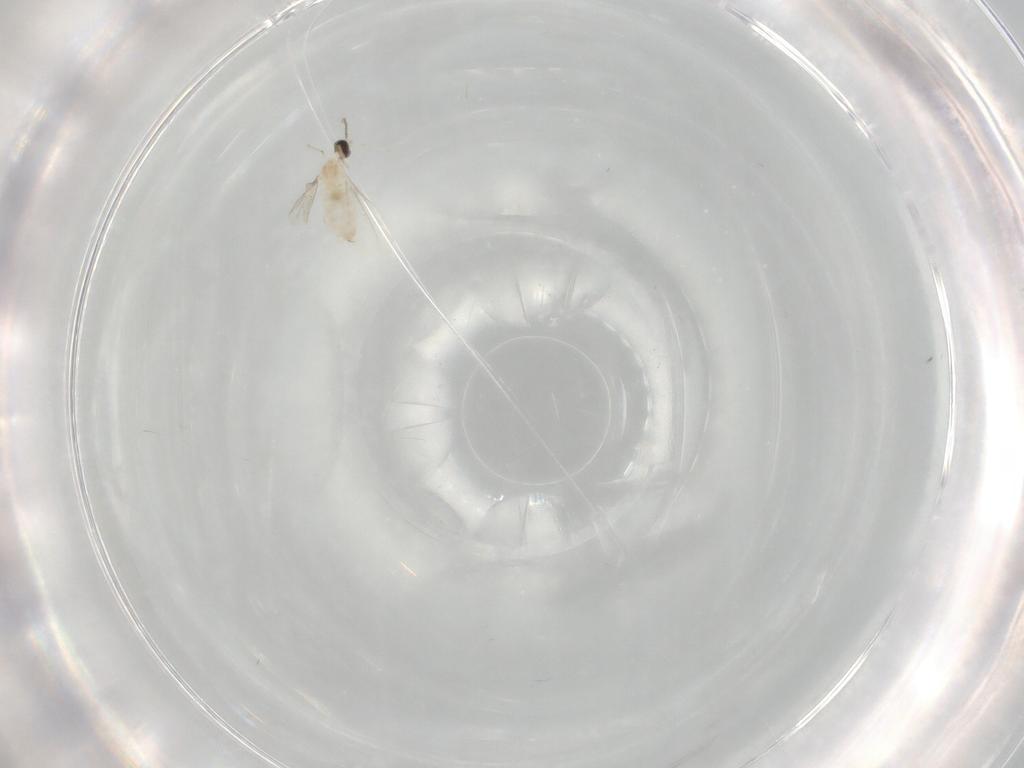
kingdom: Animalia
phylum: Arthropoda
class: Insecta
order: Diptera
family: Cecidomyiidae
